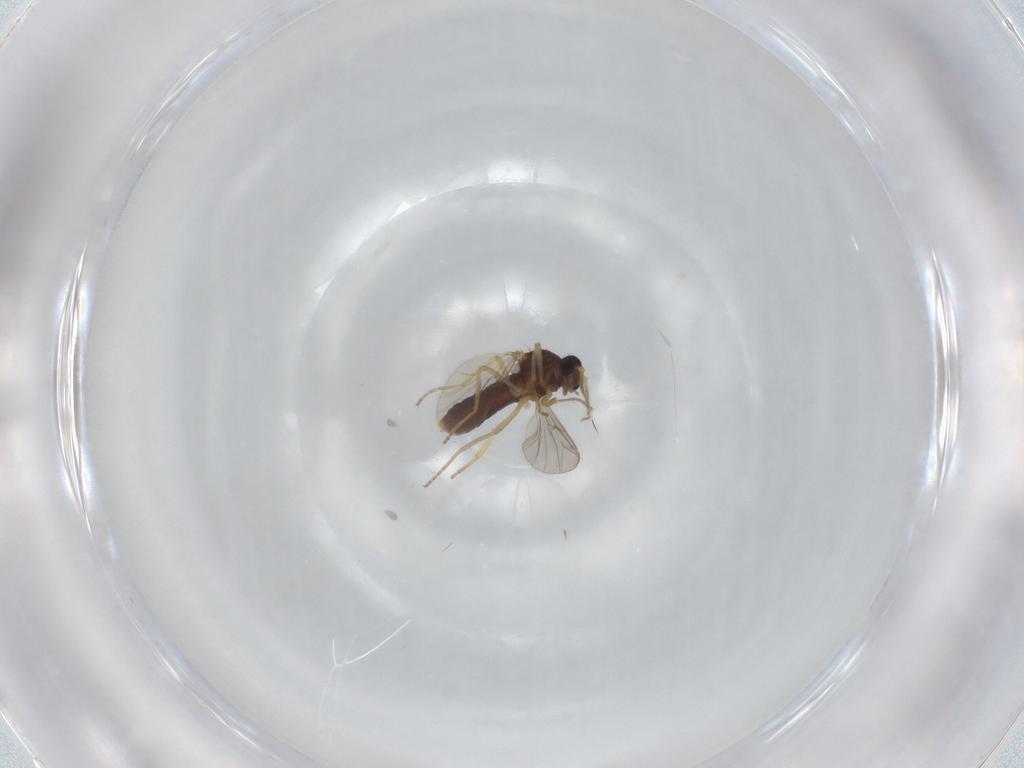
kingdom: Animalia
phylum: Arthropoda
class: Insecta
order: Diptera
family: Ceratopogonidae
